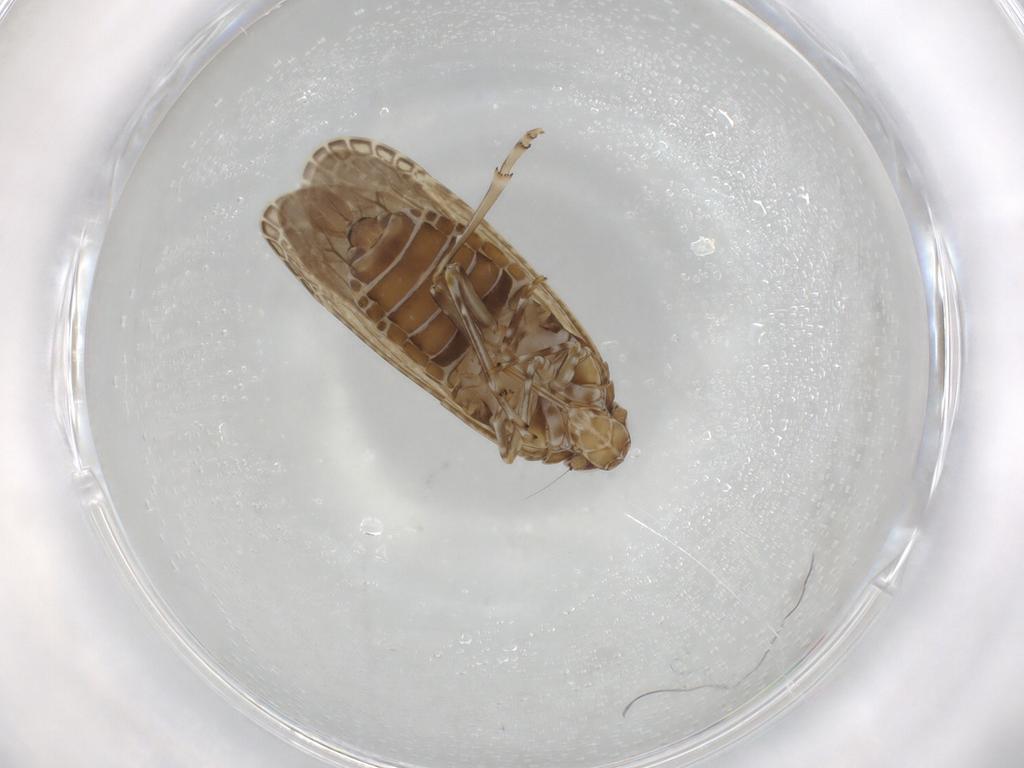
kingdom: Animalia
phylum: Arthropoda
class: Insecta
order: Hemiptera
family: Achilidae
